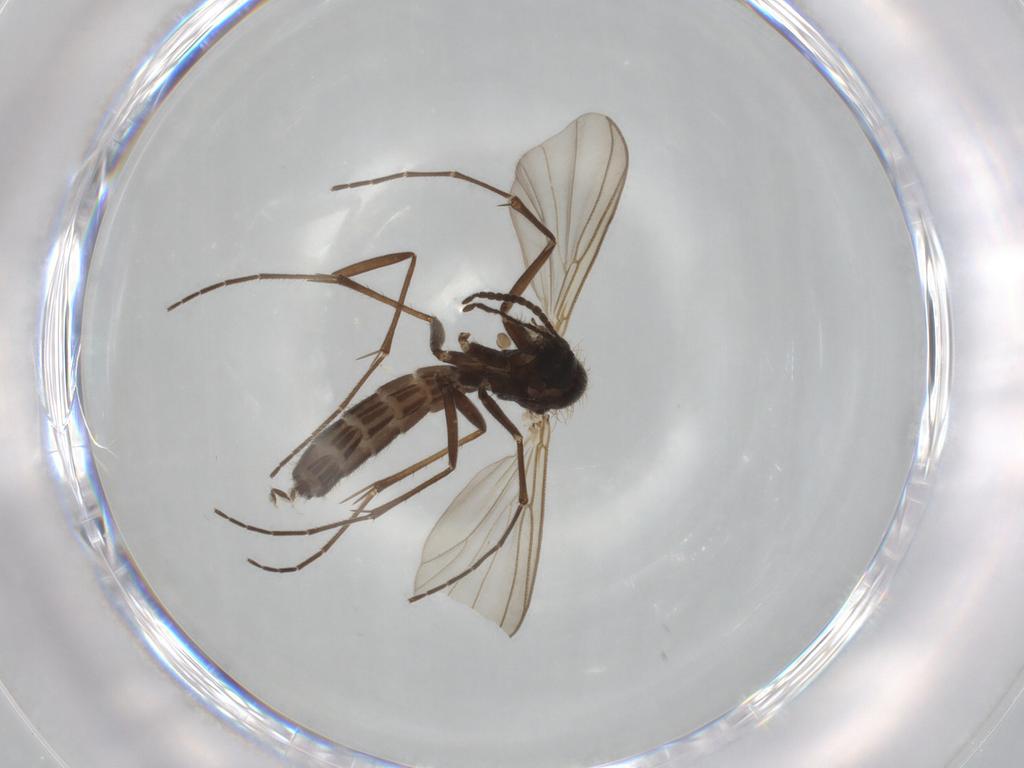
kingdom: Animalia
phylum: Arthropoda
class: Insecta
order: Diptera
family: Mycetophilidae
